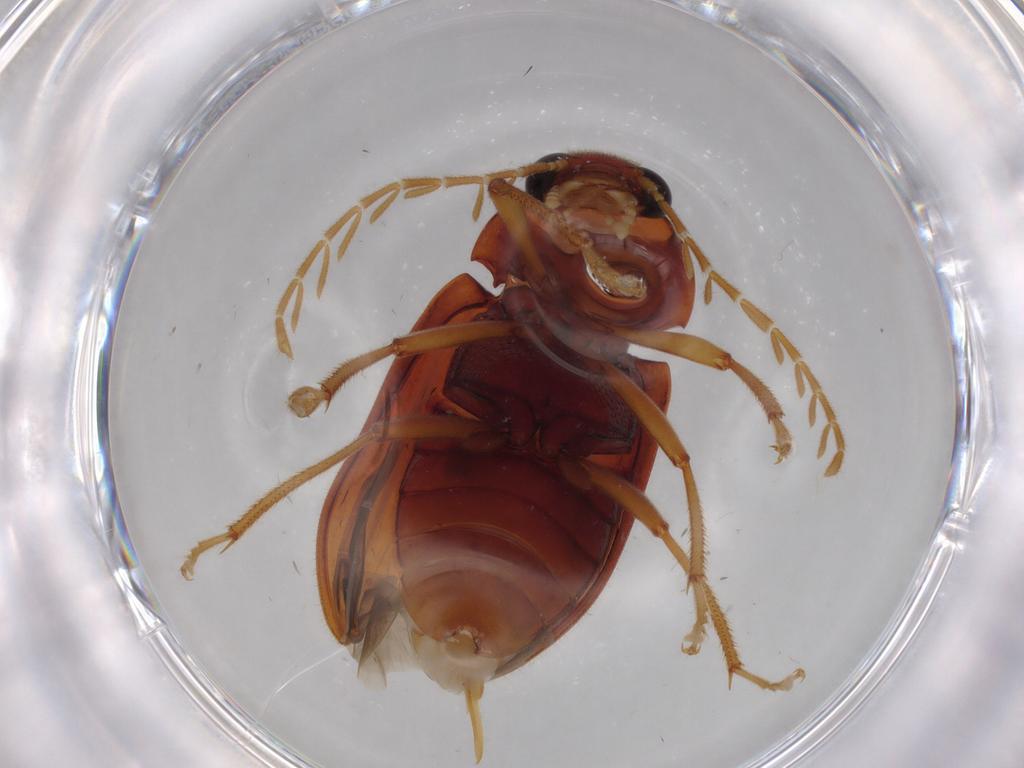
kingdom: Animalia
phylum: Arthropoda
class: Insecta
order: Coleoptera
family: Ptilodactylidae
